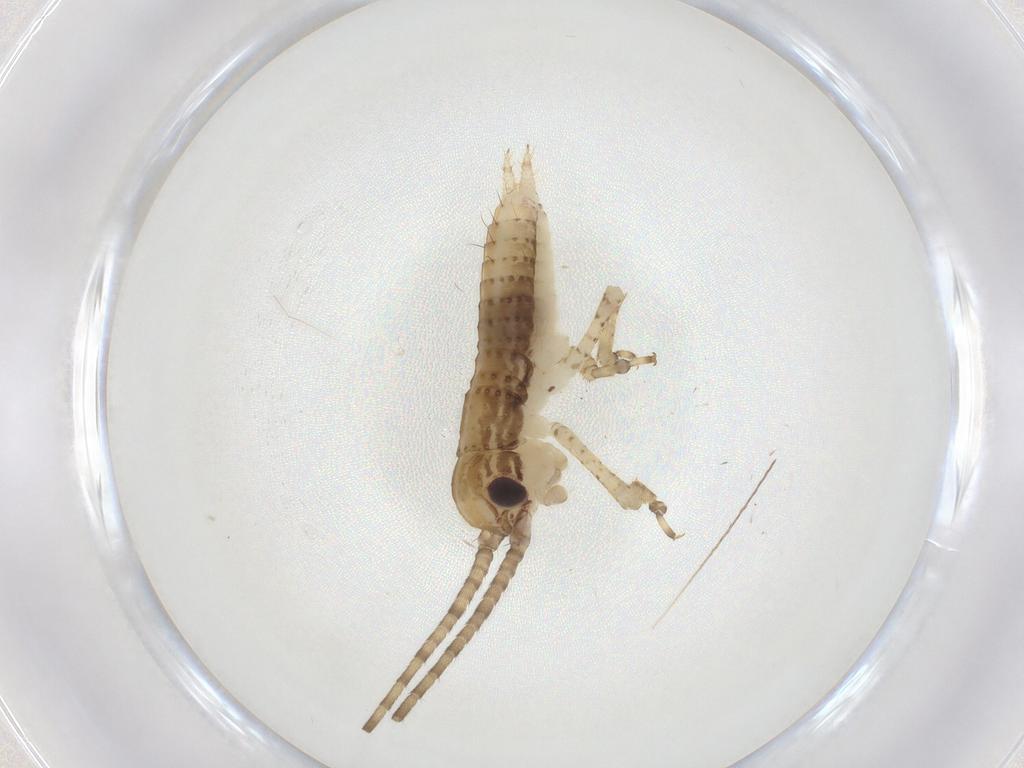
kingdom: Animalia
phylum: Arthropoda
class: Insecta
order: Orthoptera
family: Gryllidae
